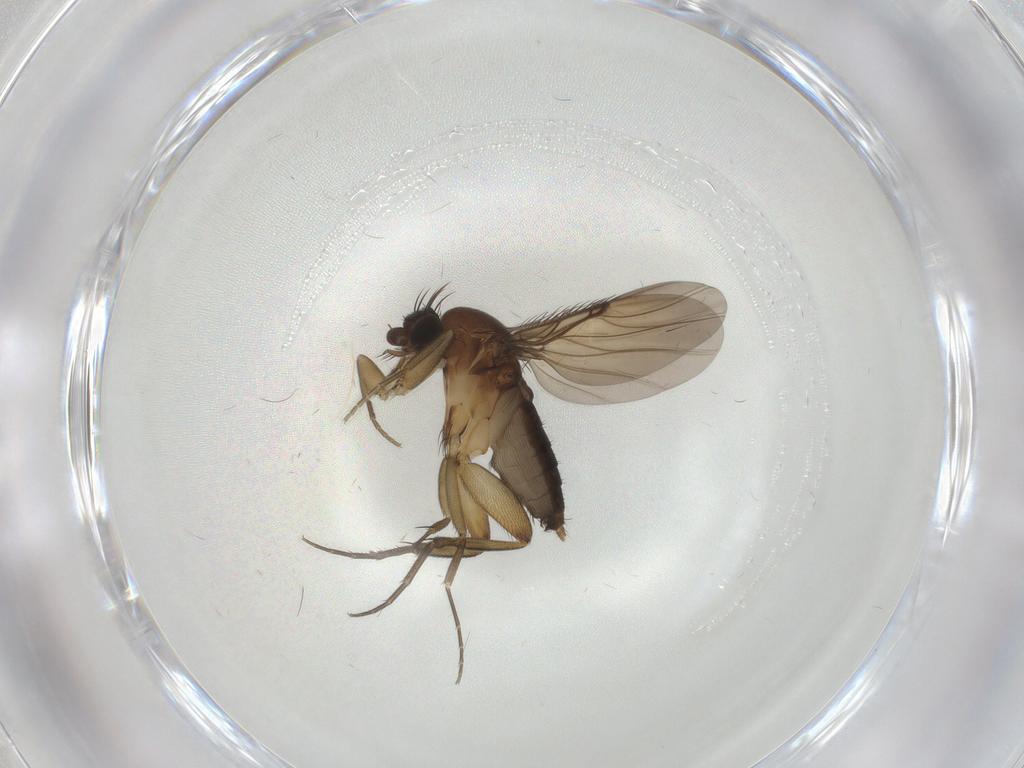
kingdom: Animalia
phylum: Arthropoda
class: Insecta
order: Diptera
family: Phoridae
